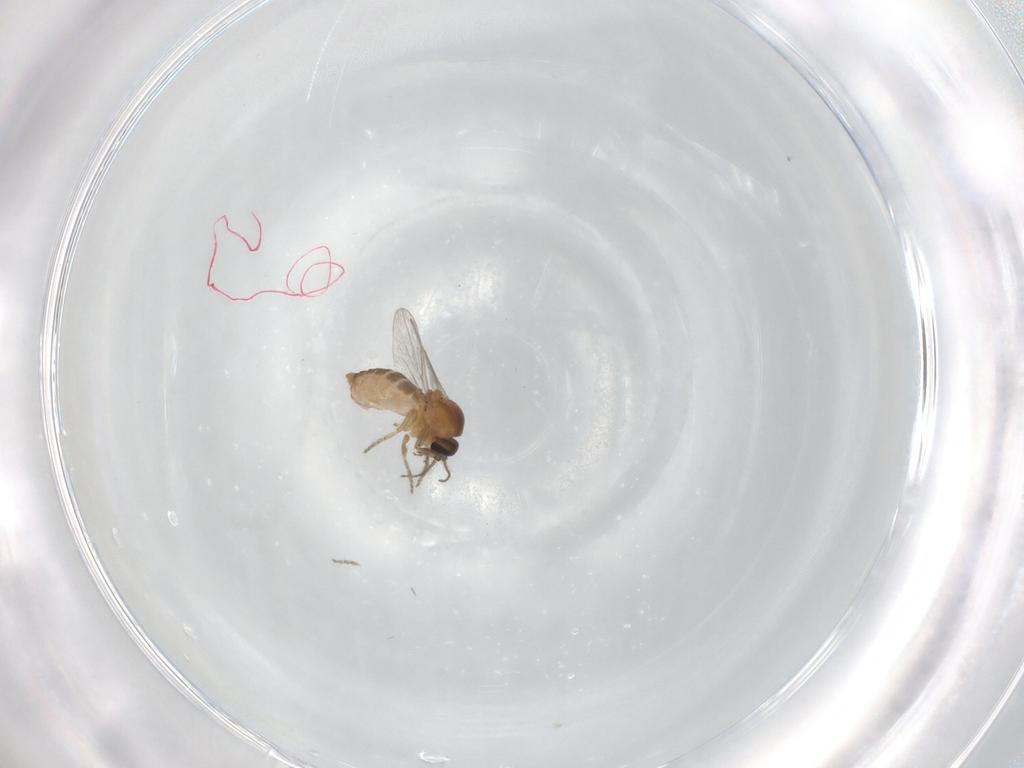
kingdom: Animalia
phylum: Arthropoda
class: Insecta
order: Diptera
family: Ceratopogonidae
